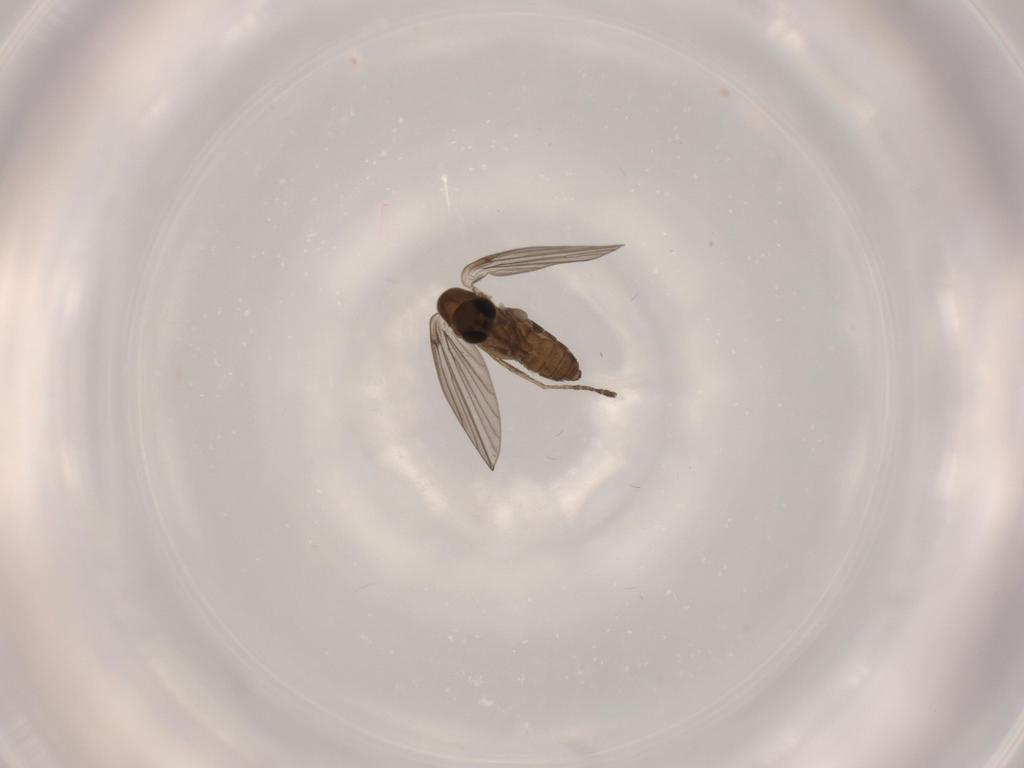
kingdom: Animalia
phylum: Arthropoda
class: Insecta
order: Diptera
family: Psychodidae
